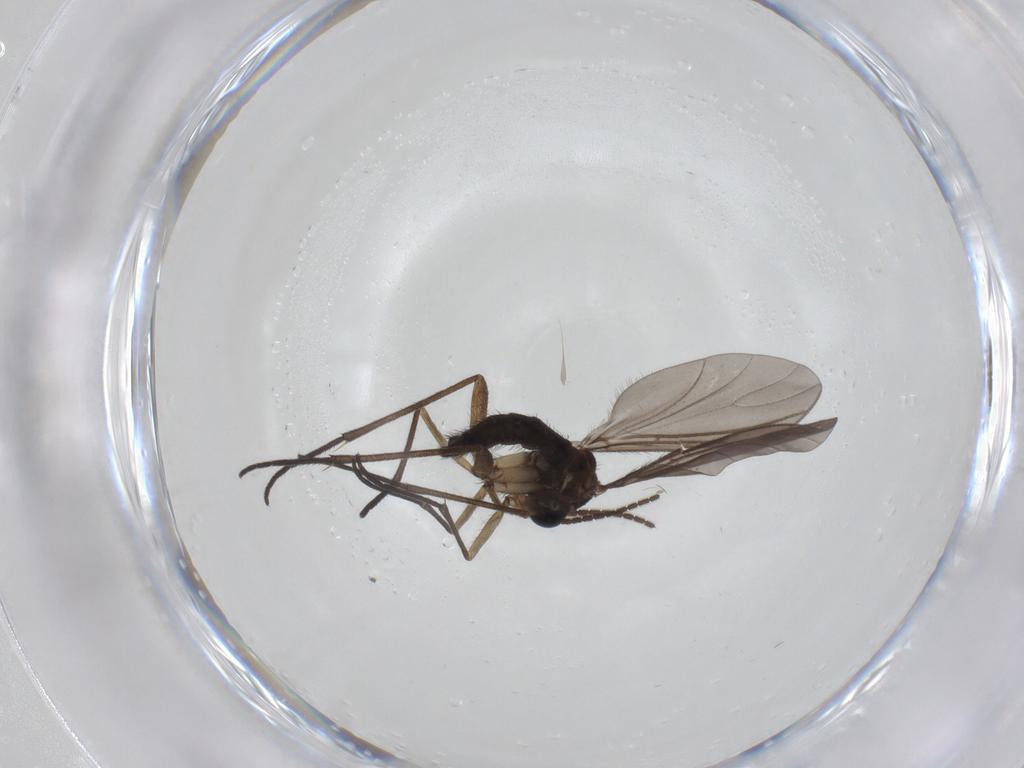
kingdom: Animalia
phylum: Arthropoda
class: Insecta
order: Diptera
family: Sciaridae
